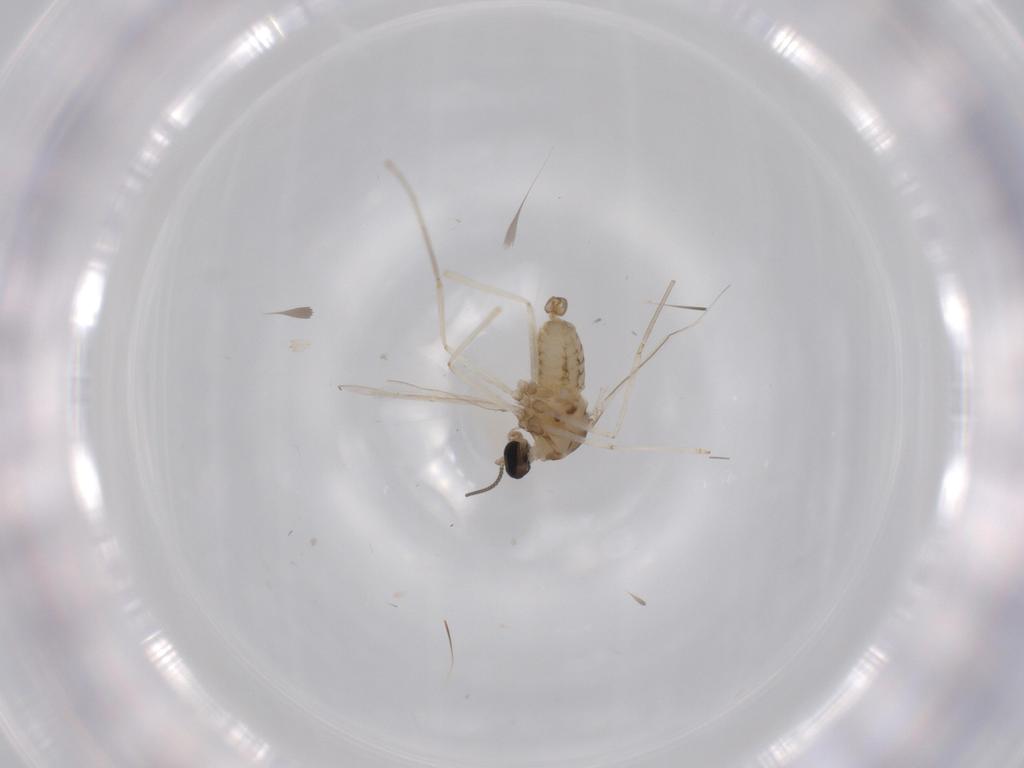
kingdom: Animalia
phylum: Arthropoda
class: Insecta
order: Diptera
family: Cecidomyiidae
